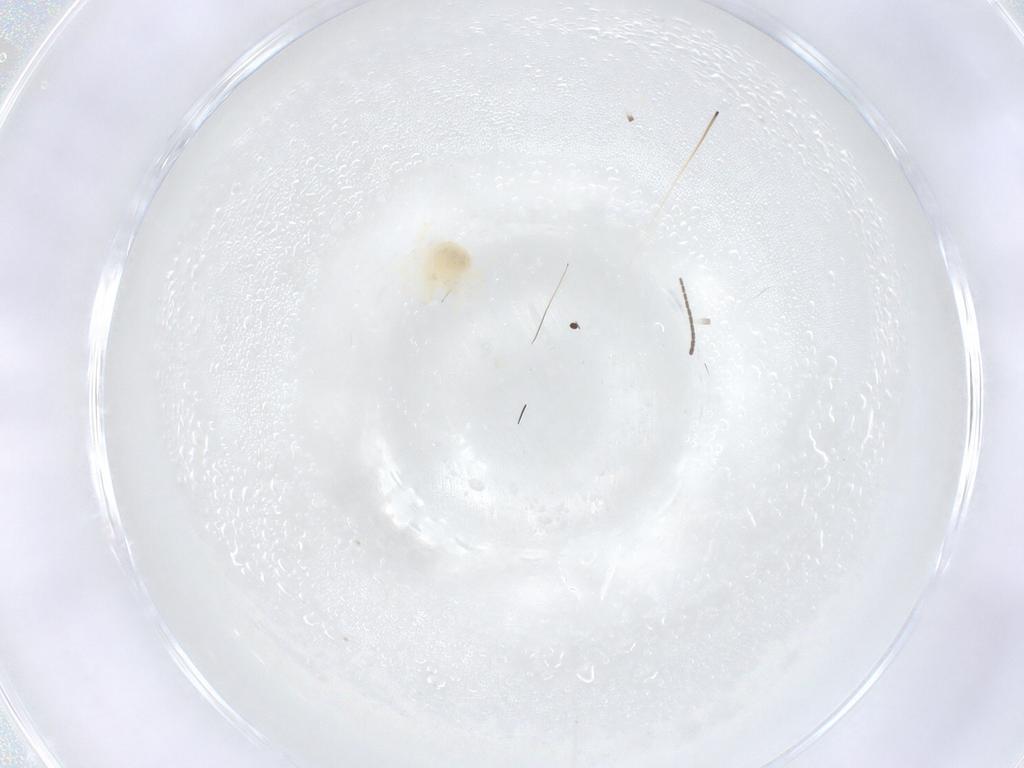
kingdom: Animalia
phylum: Arthropoda
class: Arachnida
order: Trombidiformes
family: Anystidae
